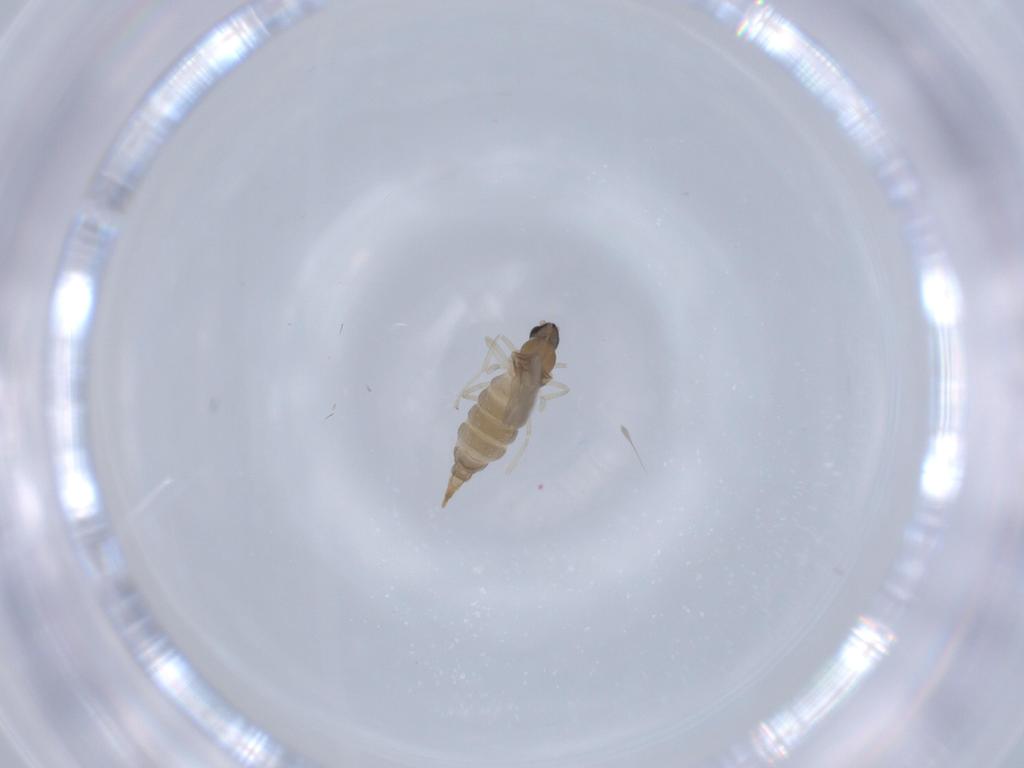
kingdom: Animalia
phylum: Arthropoda
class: Insecta
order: Diptera
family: Cecidomyiidae
